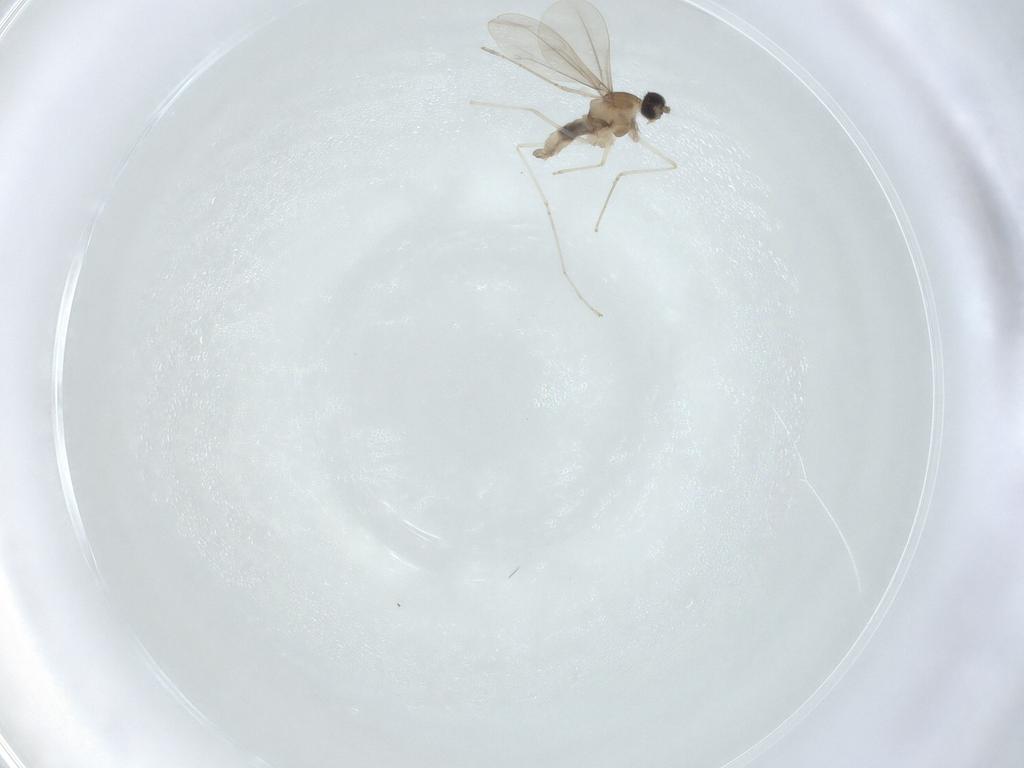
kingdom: Animalia
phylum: Arthropoda
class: Insecta
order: Diptera
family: Cecidomyiidae
